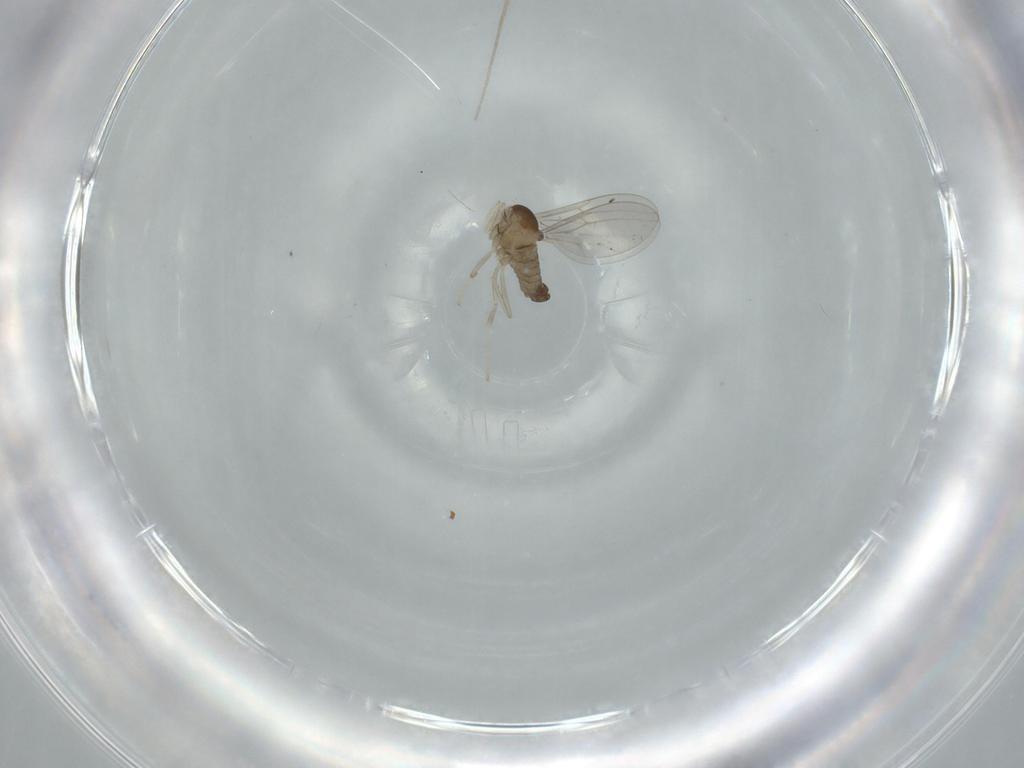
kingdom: Animalia
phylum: Arthropoda
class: Insecta
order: Diptera
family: Cecidomyiidae
